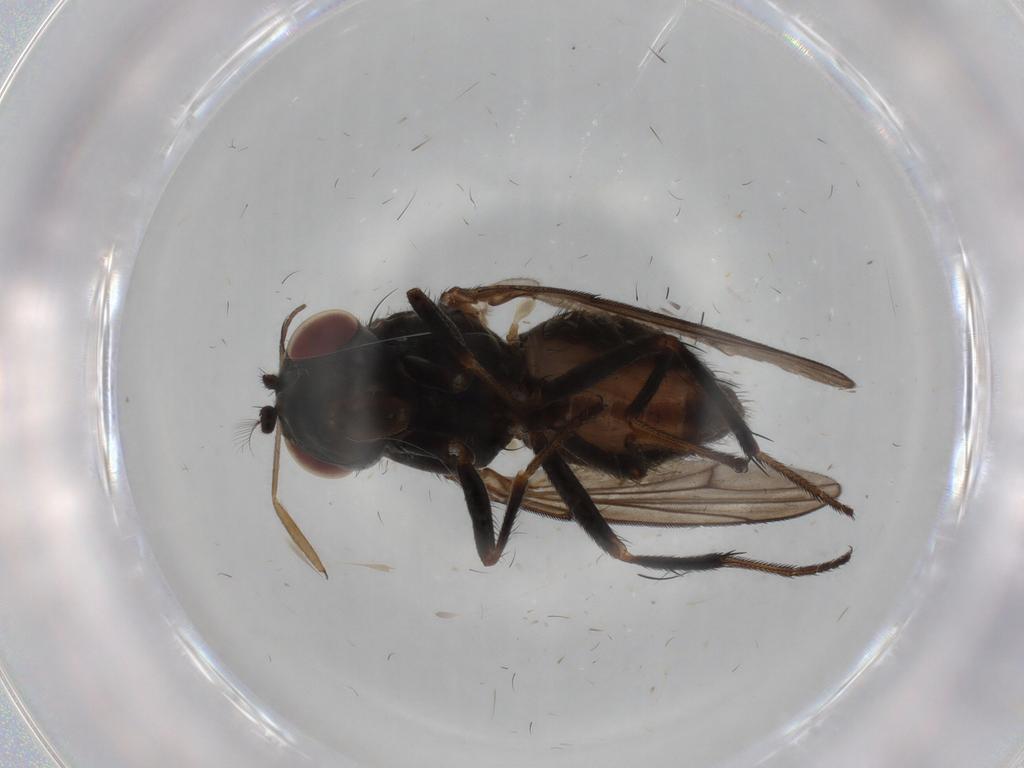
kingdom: Animalia
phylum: Arthropoda
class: Insecta
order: Diptera
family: Ephydridae
